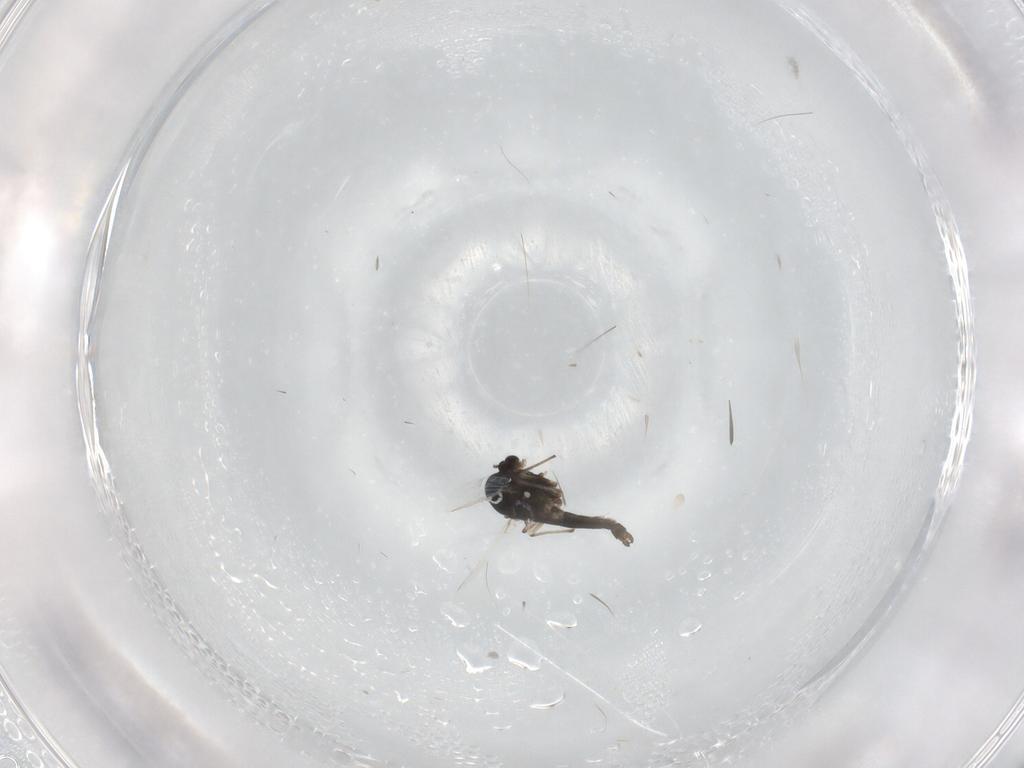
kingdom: Animalia
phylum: Arthropoda
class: Insecta
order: Diptera
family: Chironomidae
